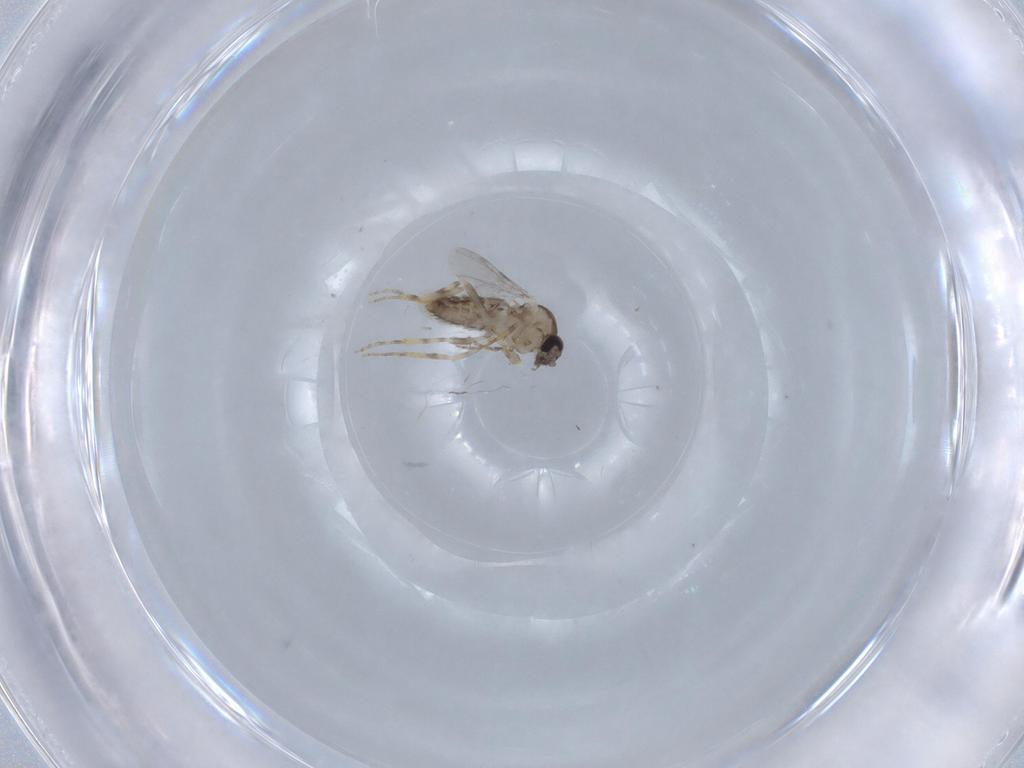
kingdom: Animalia
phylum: Arthropoda
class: Insecta
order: Diptera
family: Ceratopogonidae
